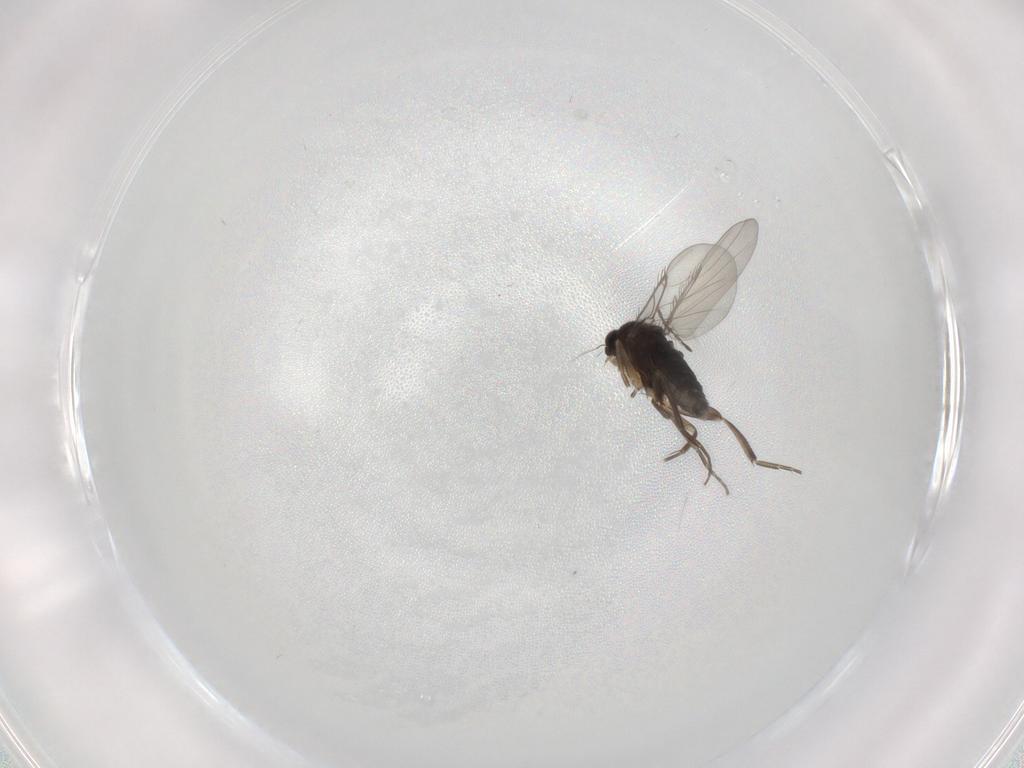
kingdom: Animalia
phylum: Arthropoda
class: Insecta
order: Diptera
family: Phoridae
